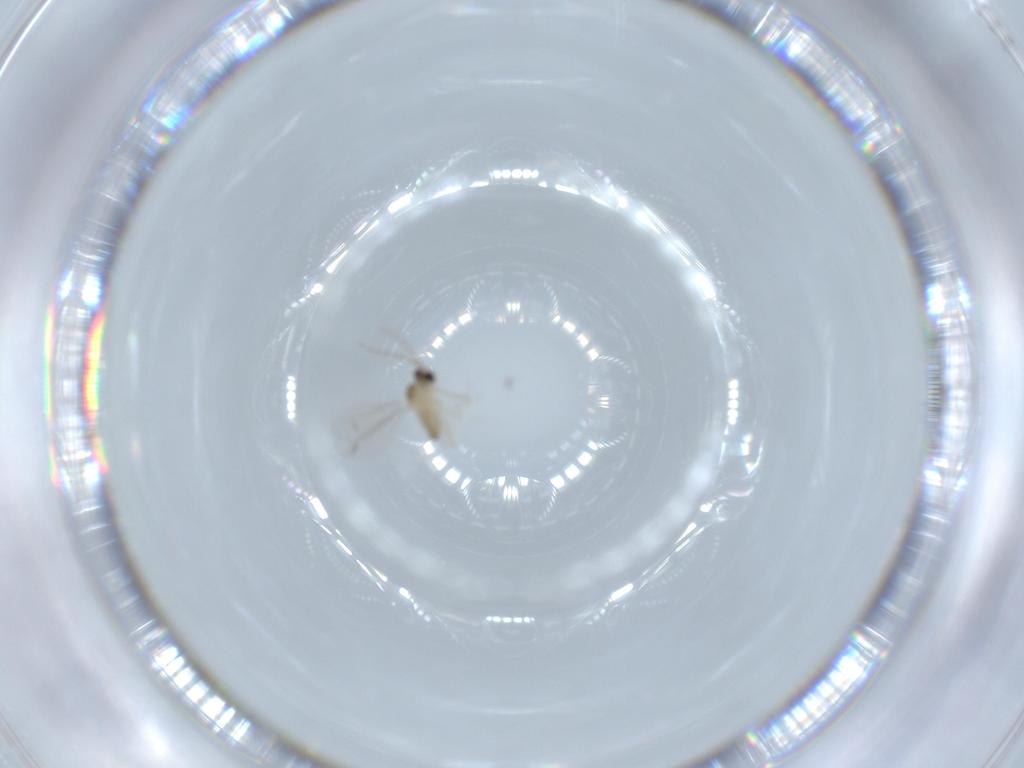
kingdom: Animalia
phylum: Arthropoda
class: Insecta
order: Diptera
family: Cecidomyiidae
